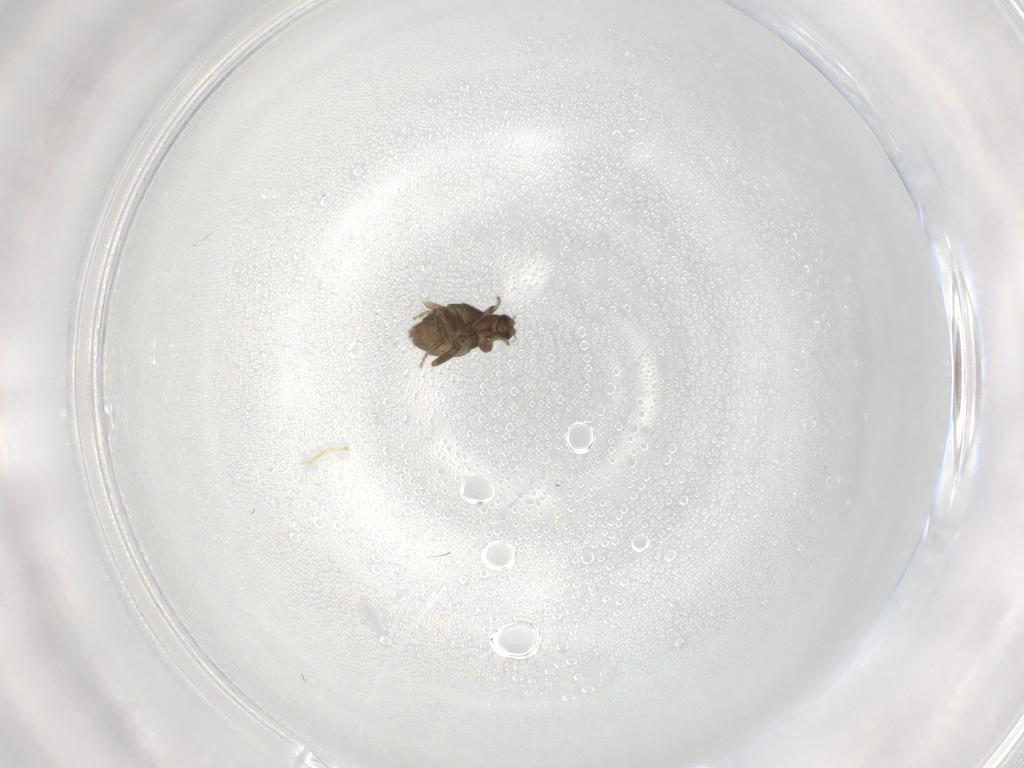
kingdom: Animalia
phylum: Arthropoda
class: Insecta
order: Diptera
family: Phoridae
